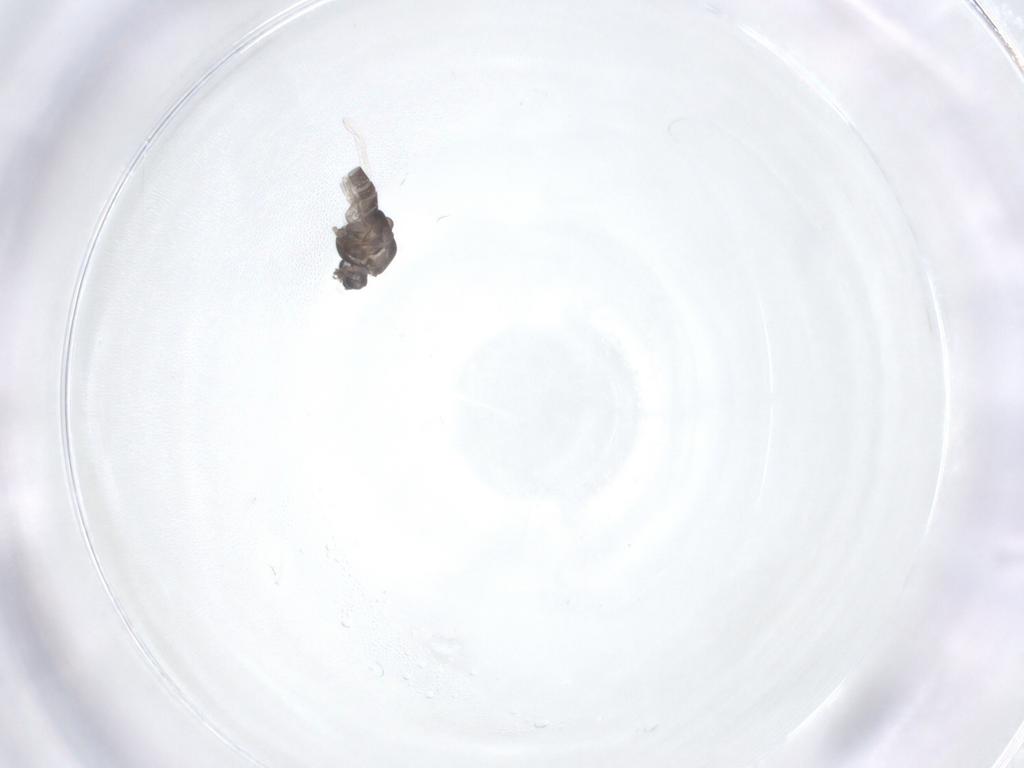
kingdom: Animalia
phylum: Arthropoda
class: Insecta
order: Diptera
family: Chironomidae
